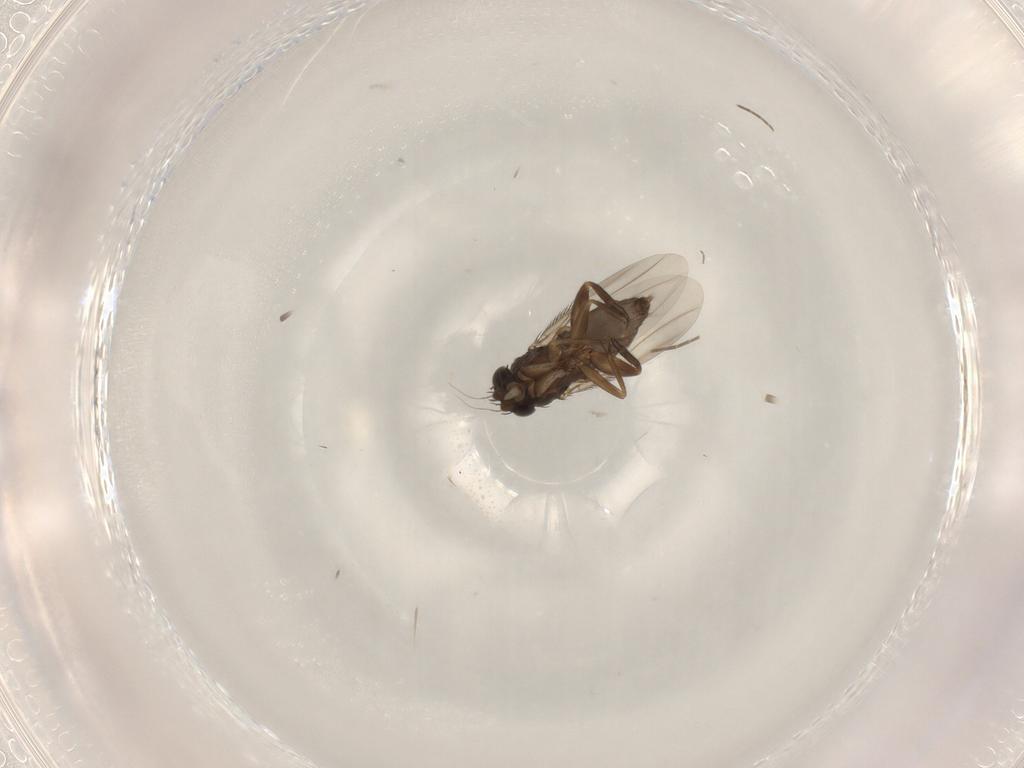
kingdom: Animalia
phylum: Arthropoda
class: Insecta
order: Diptera
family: Phoridae
